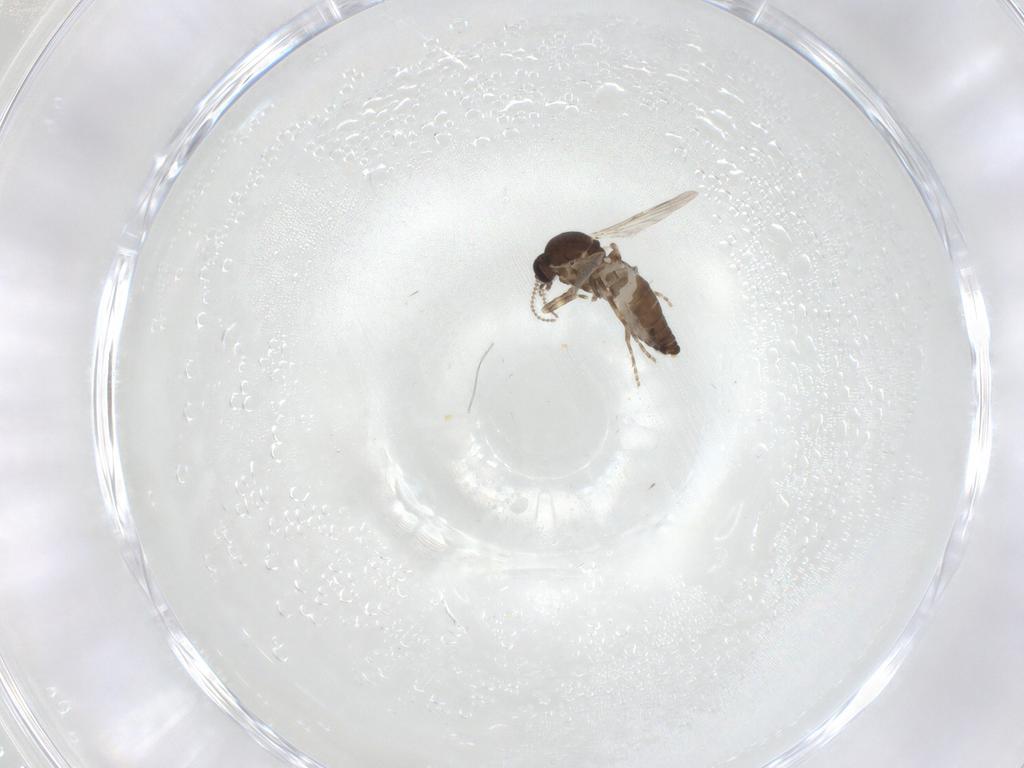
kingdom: Animalia
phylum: Arthropoda
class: Insecta
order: Diptera
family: Ceratopogonidae
